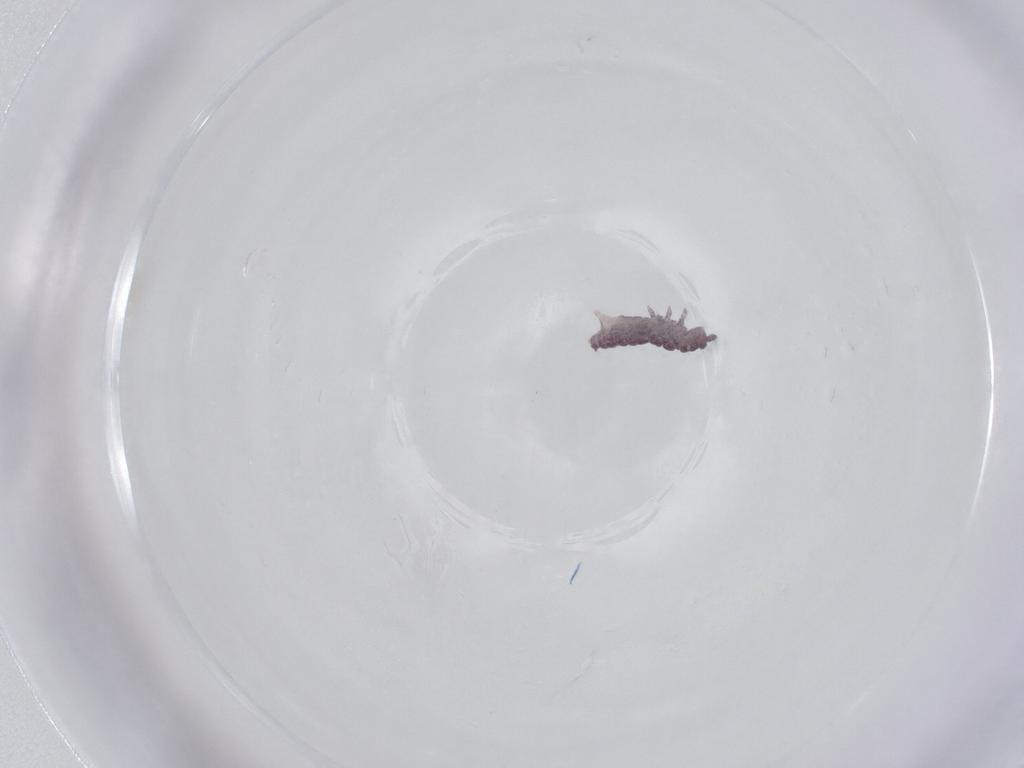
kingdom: Animalia
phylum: Arthropoda
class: Collembola
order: Poduromorpha
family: Hypogastruridae
